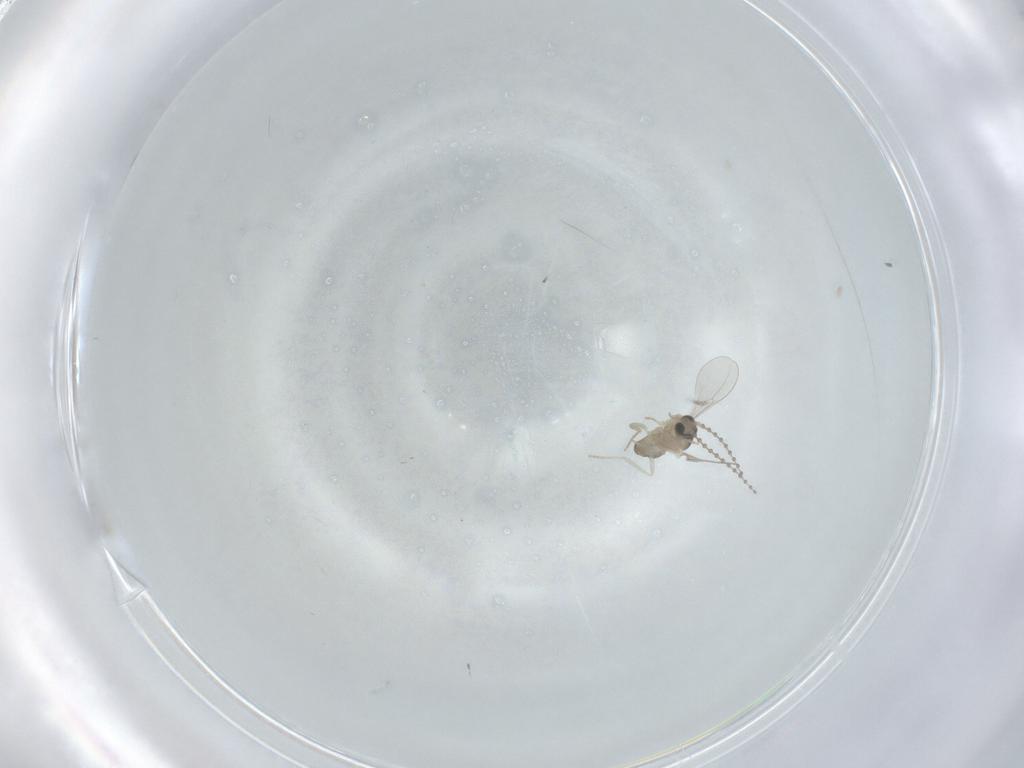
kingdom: Animalia
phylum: Arthropoda
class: Insecta
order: Diptera
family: Cecidomyiidae
